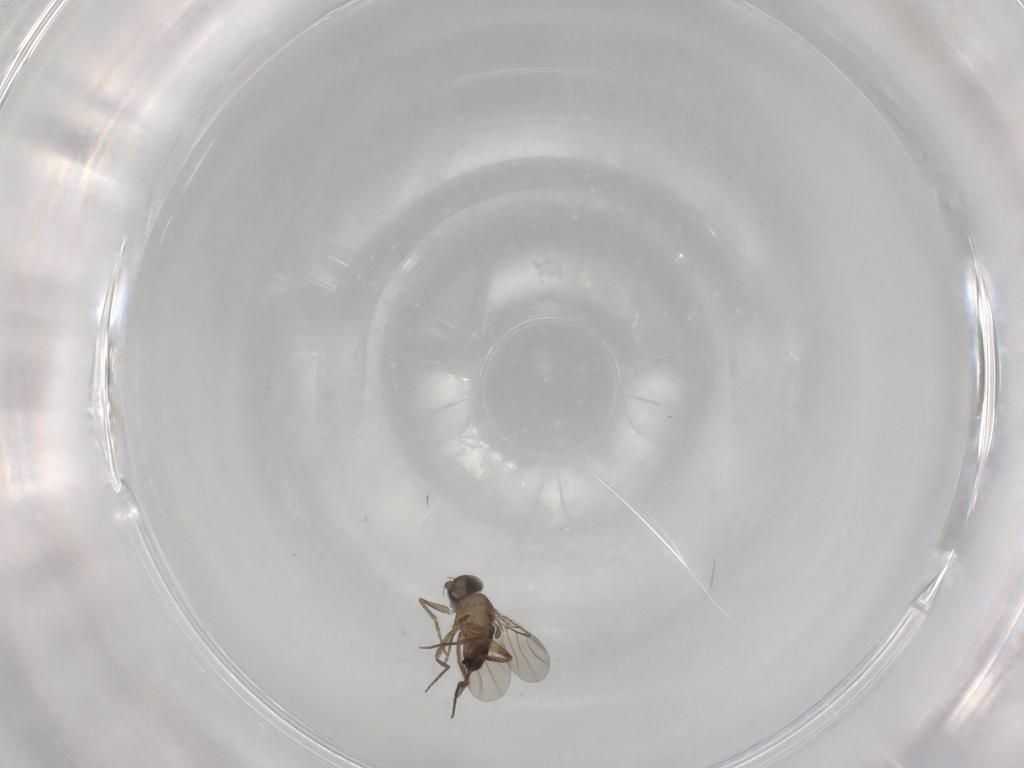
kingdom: Animalia
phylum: Arthropoda
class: Insecta
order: Diptera
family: Phoridae
